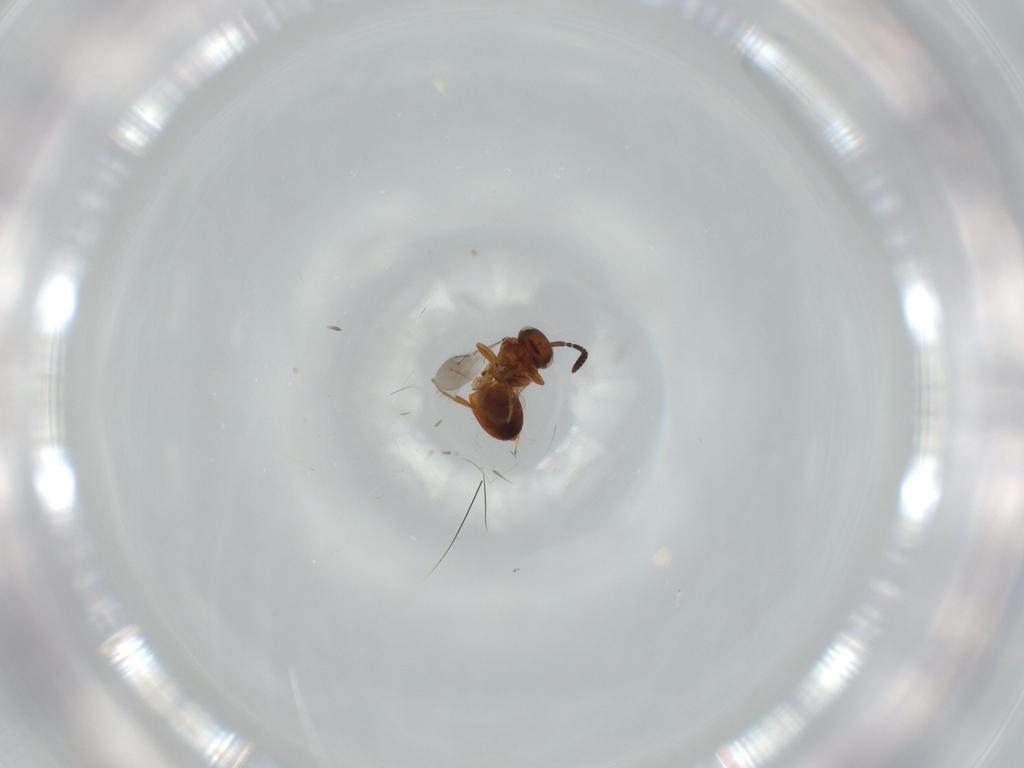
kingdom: Animalia
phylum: Arthropoda
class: Insecta
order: Hymenoptera
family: Scelionidae
